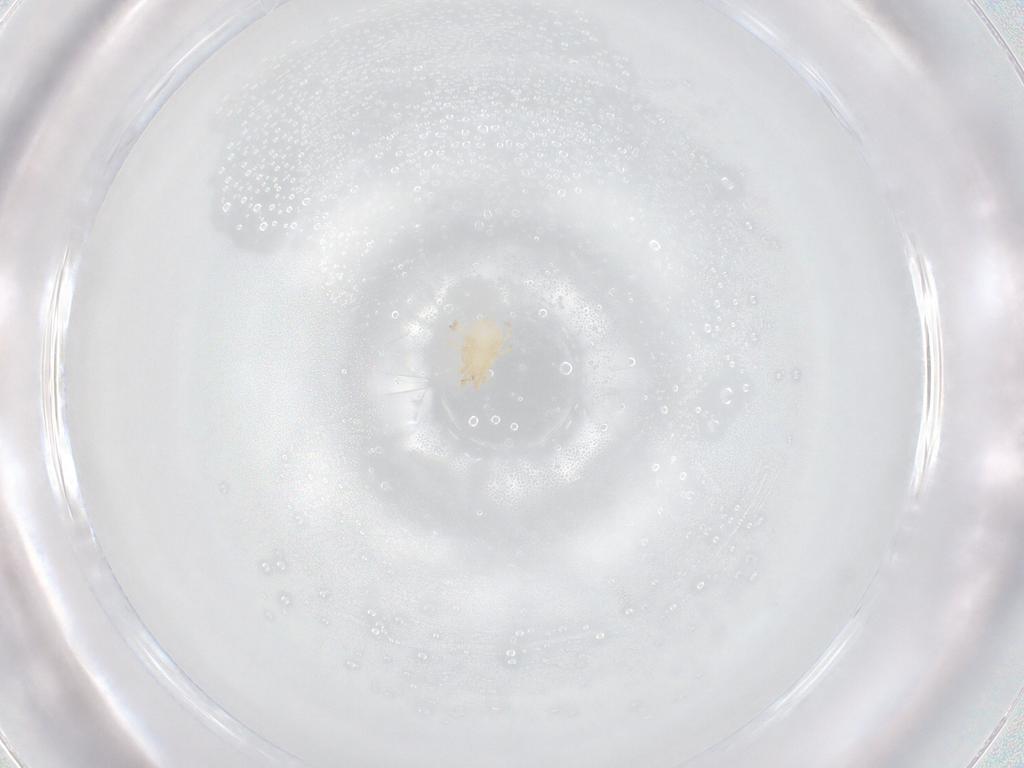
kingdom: Animalia
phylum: Arthropoda
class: Arachnida
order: Mesostigmata
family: Melicharidae
